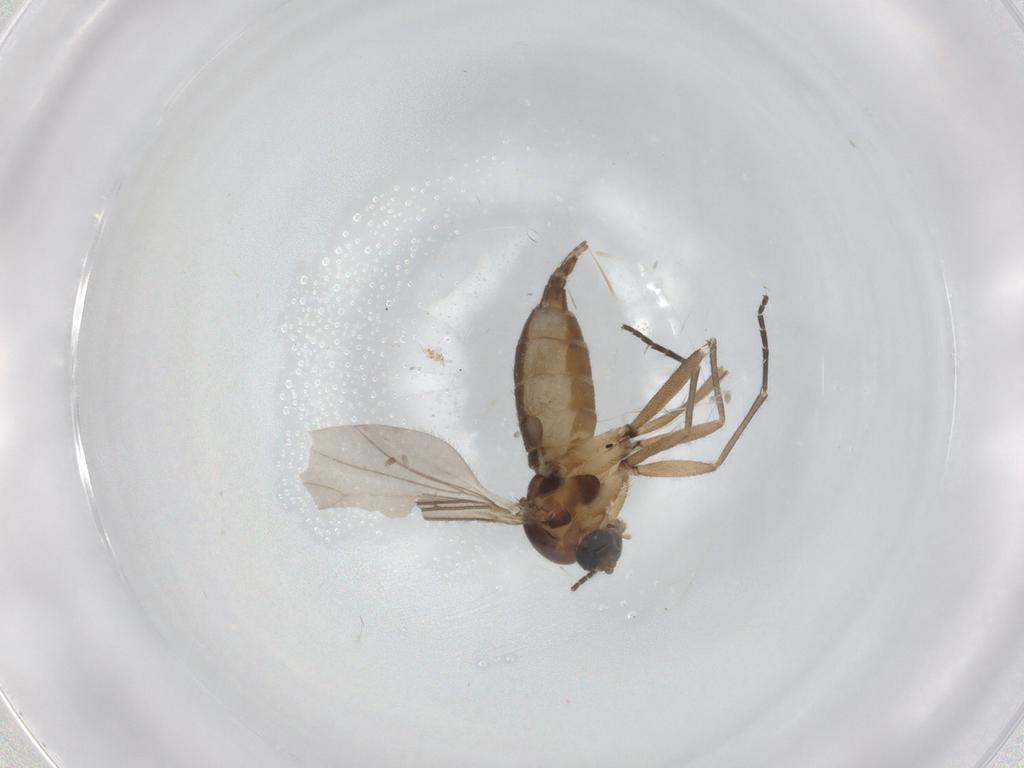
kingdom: Animalia
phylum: Arthropoda
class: Insecta
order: Diptera
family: Sciaridae
